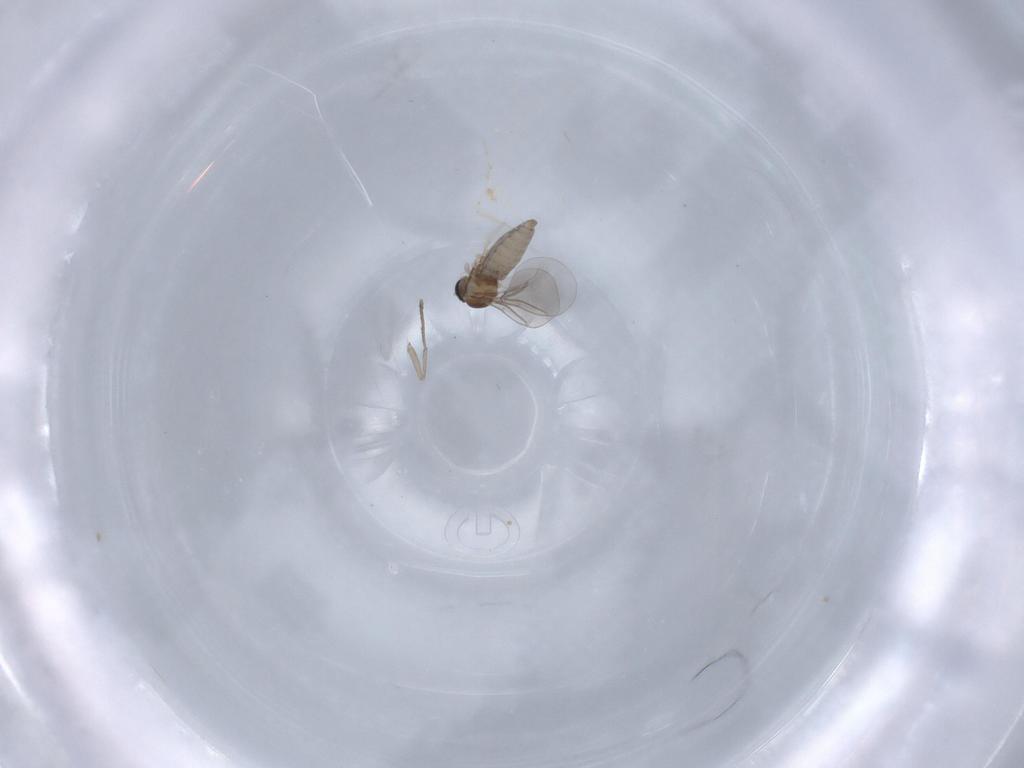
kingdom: Animalia
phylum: Arthropoda
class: Insecta
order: Diptera
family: Cecidomyiidae
